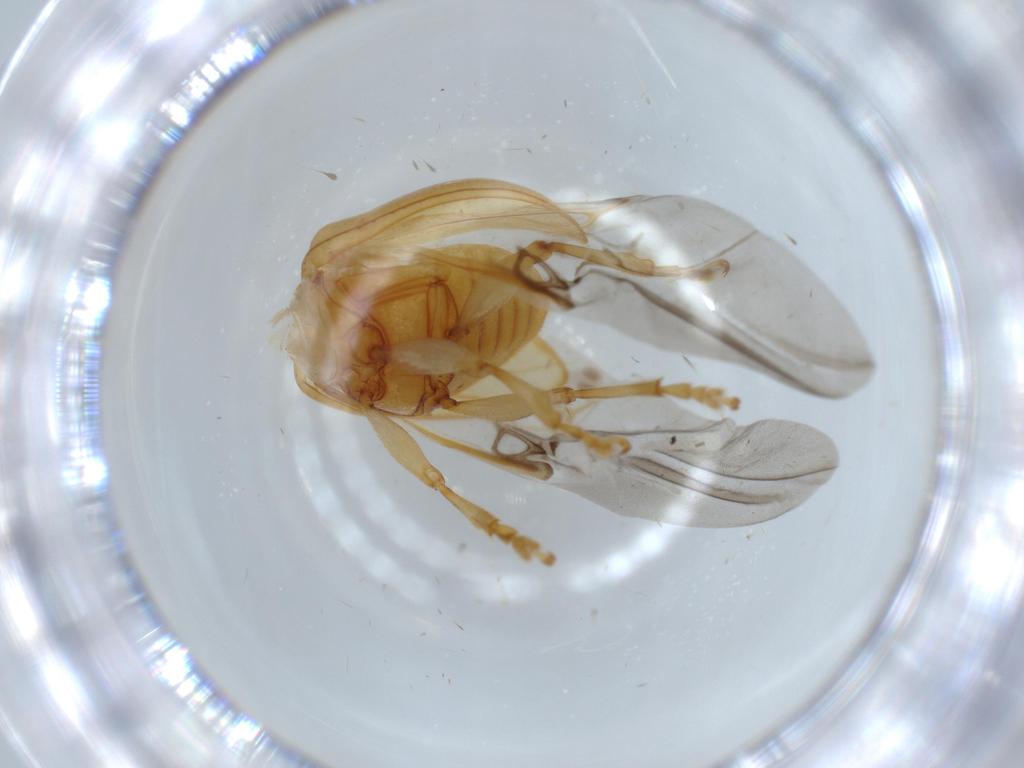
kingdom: Animalia
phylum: Arthropoda
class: Insecta
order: Coleoptera
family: Chrysomelidae
